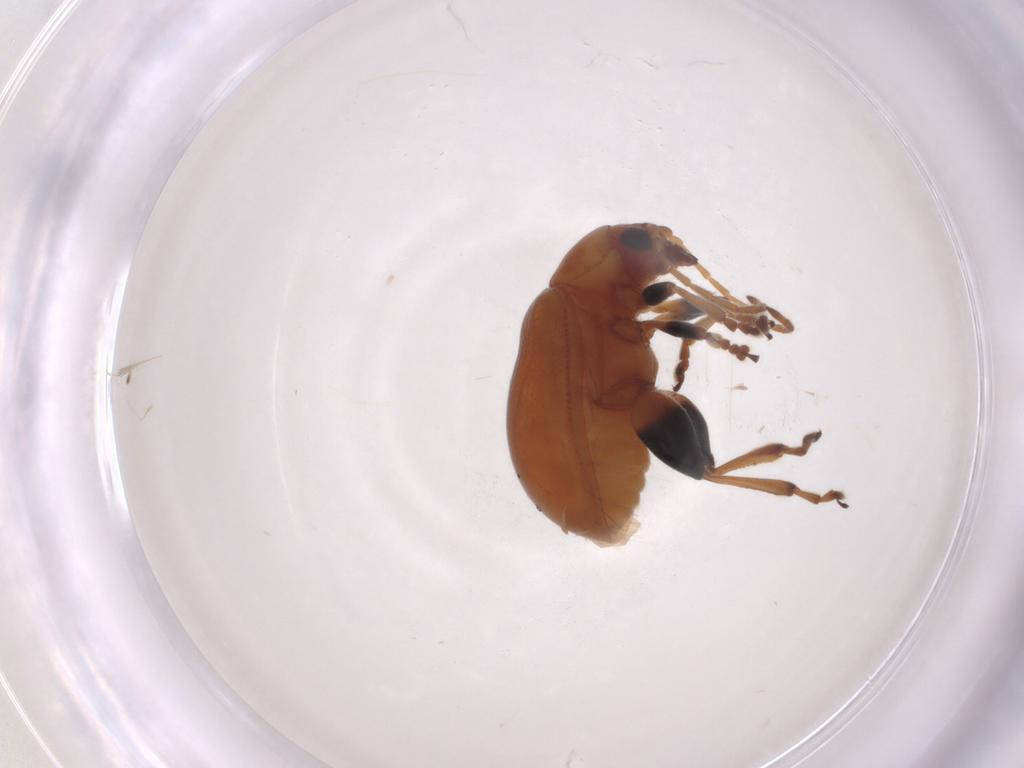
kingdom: Animalia
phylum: Arthropoda
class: Insecta
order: Coleoptera
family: Chrysomelidae
